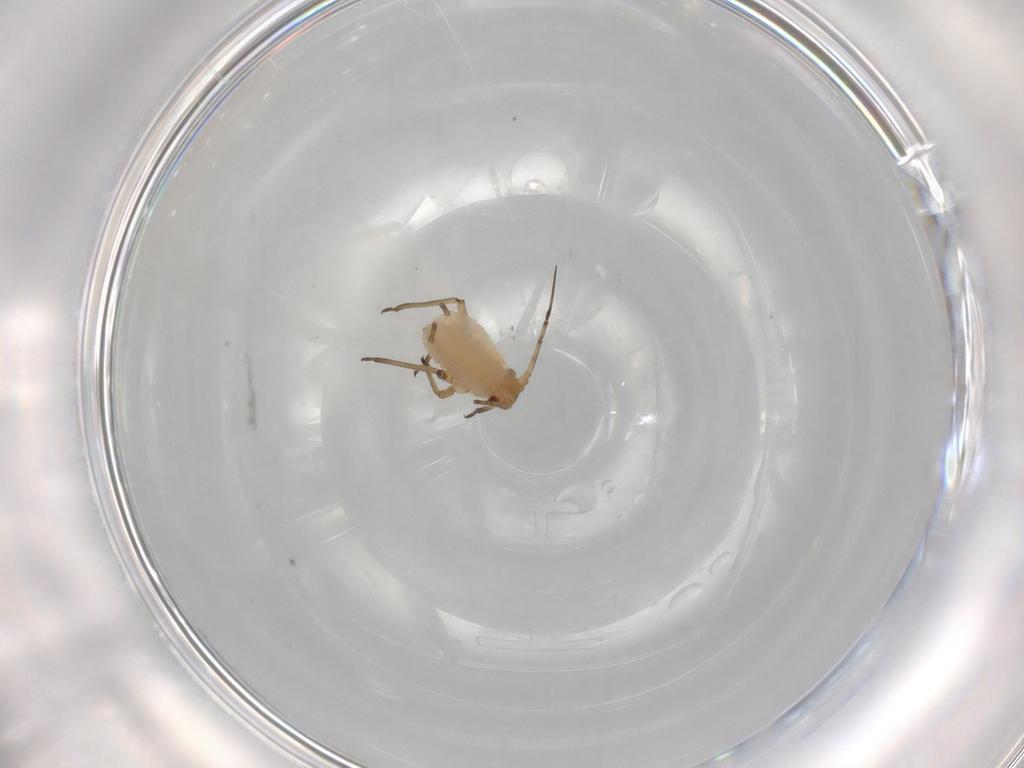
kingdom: Animalia
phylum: Arthropoda
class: Insecta
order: Hemiptera
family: Aphididae
